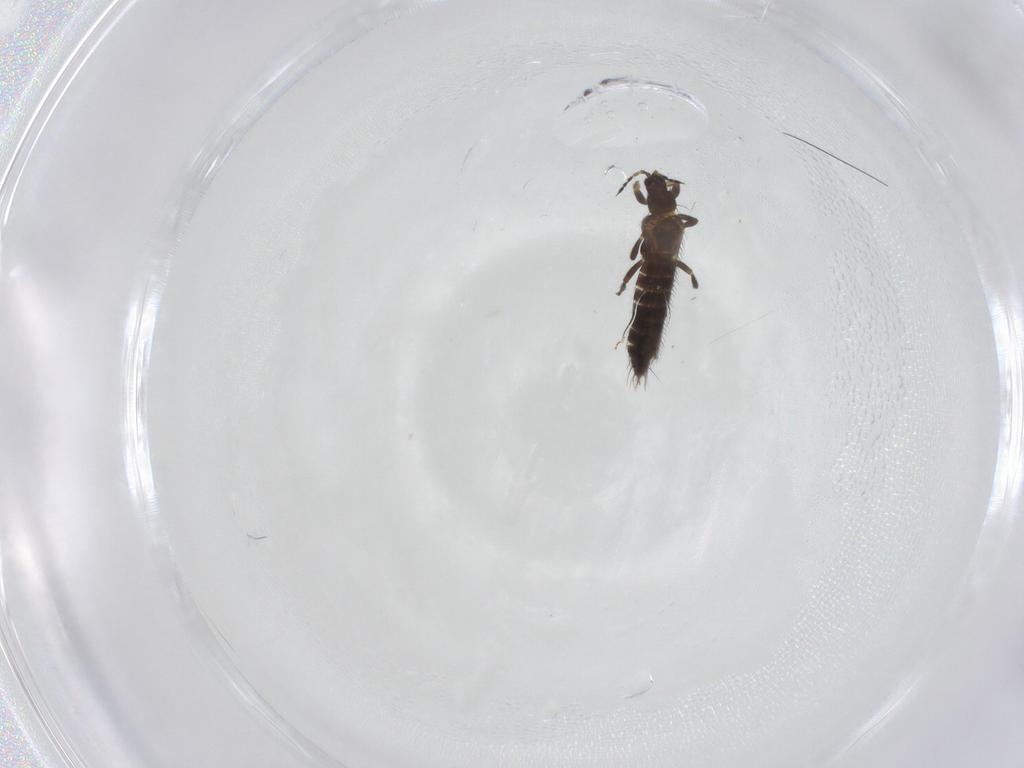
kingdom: Animalia
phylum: Arthropoda
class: Insecta
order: Thysanoptera
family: Thripidae
